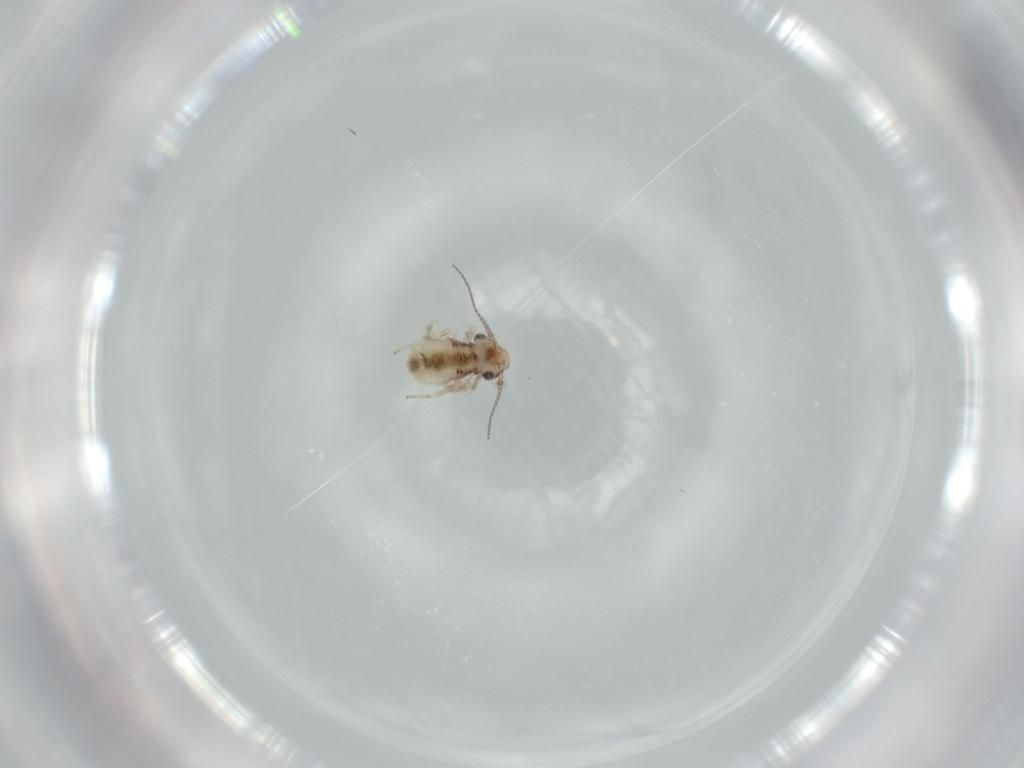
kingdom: Animalia
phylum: Arthropoda
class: Insecta
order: Psocodea
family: Lepidopsocidae
